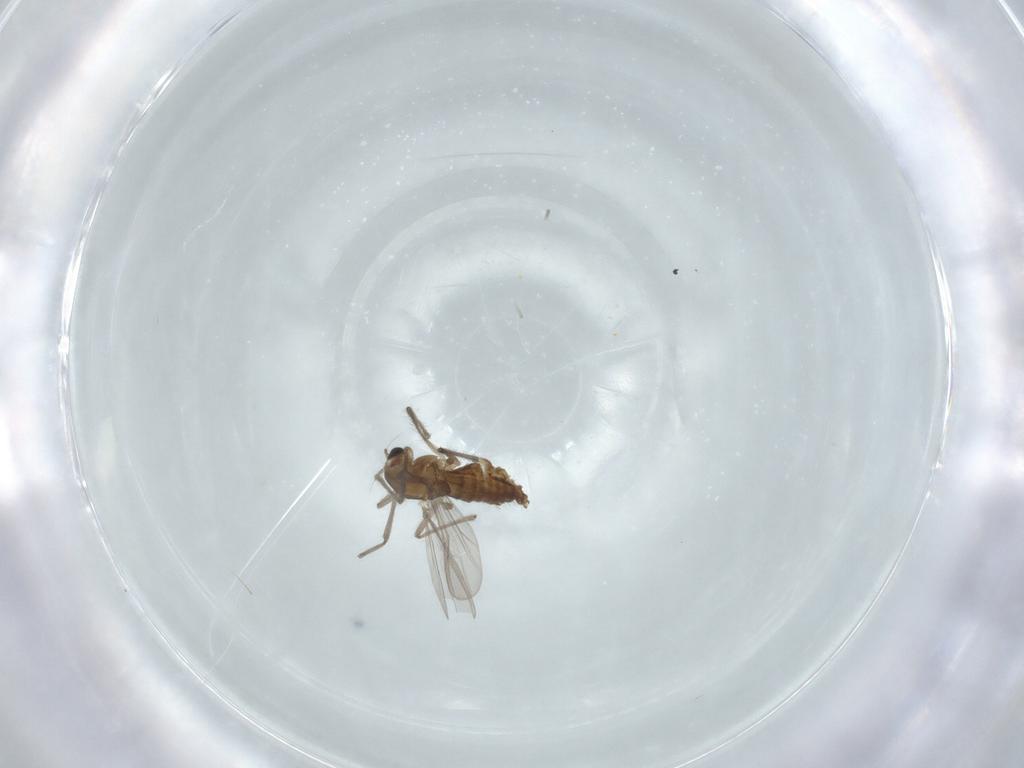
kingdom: Animalia
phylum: Arthropoda
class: Insecta
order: Diptera
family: Chironomidae
